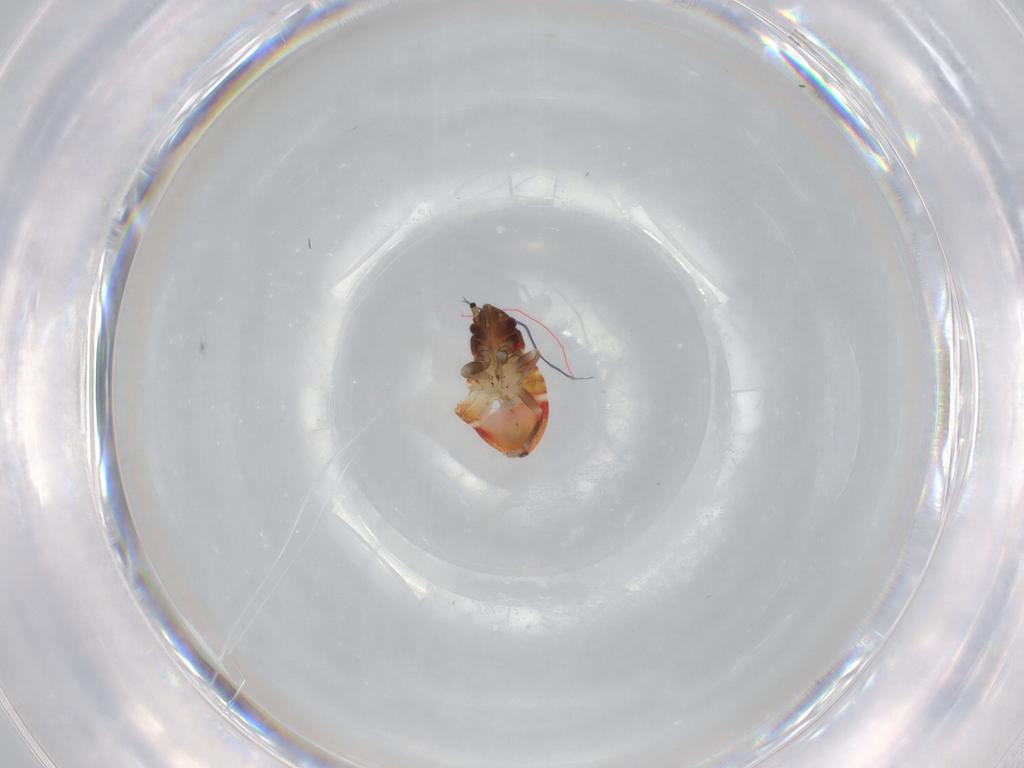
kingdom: Animalia
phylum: Arthropoda
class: Insecta
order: Hemiptera
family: Rhyparochromidae
